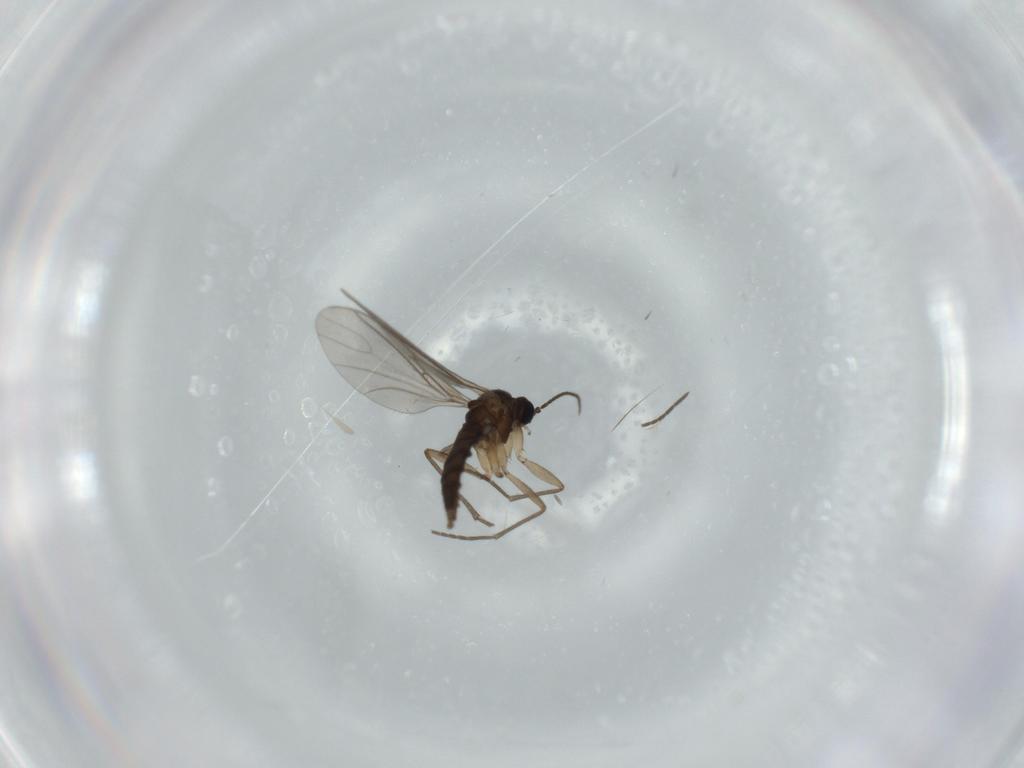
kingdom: Animalia
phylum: Arthropoda
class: Insecta
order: Diptera
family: Sciaridae
